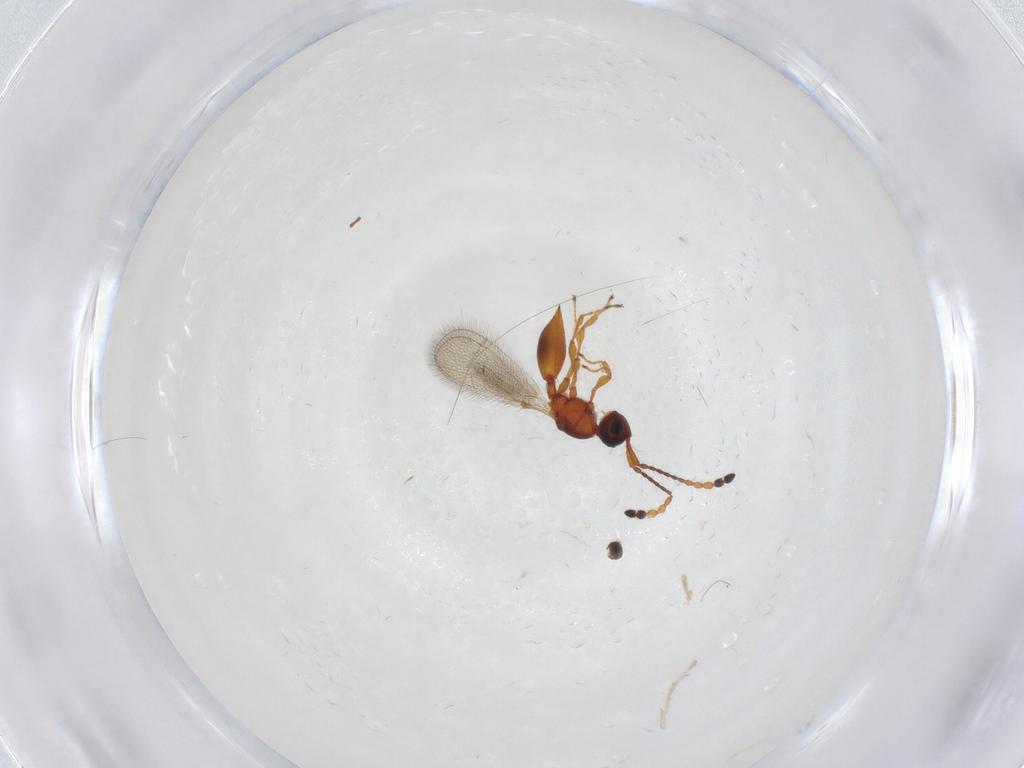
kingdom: Animalia
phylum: Arthropoda
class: Insecta
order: Hymenoptera
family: Diapriidae
